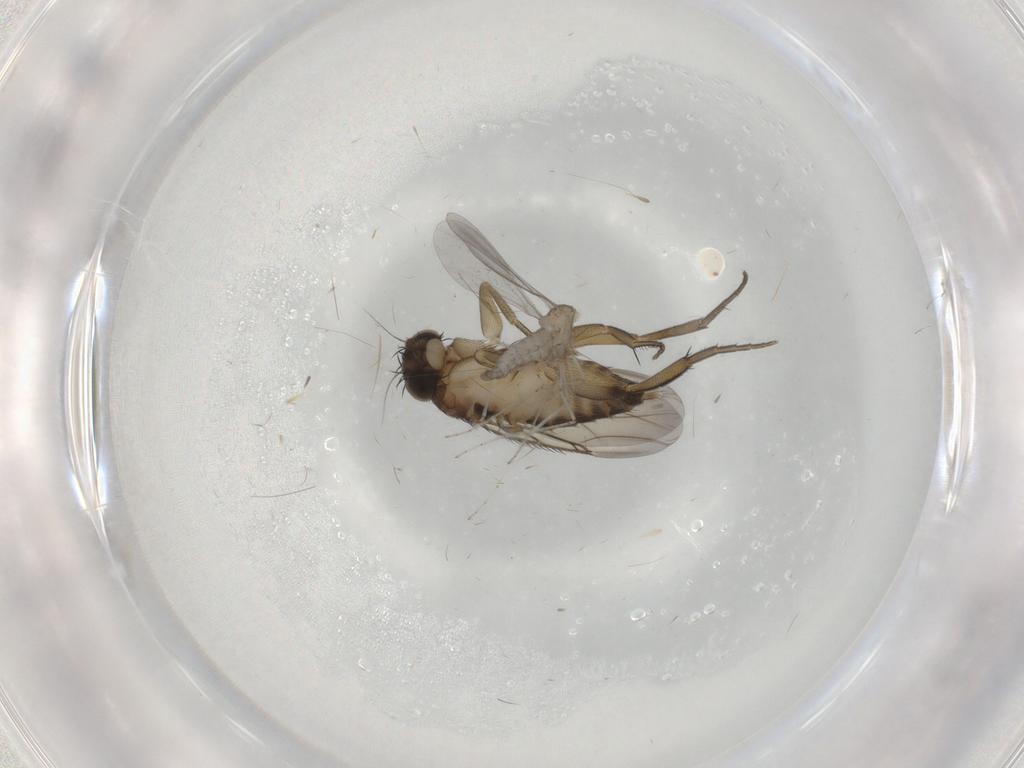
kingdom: Animalia
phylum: Arthropoda
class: Insecta
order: Diptera
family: Phoridae
